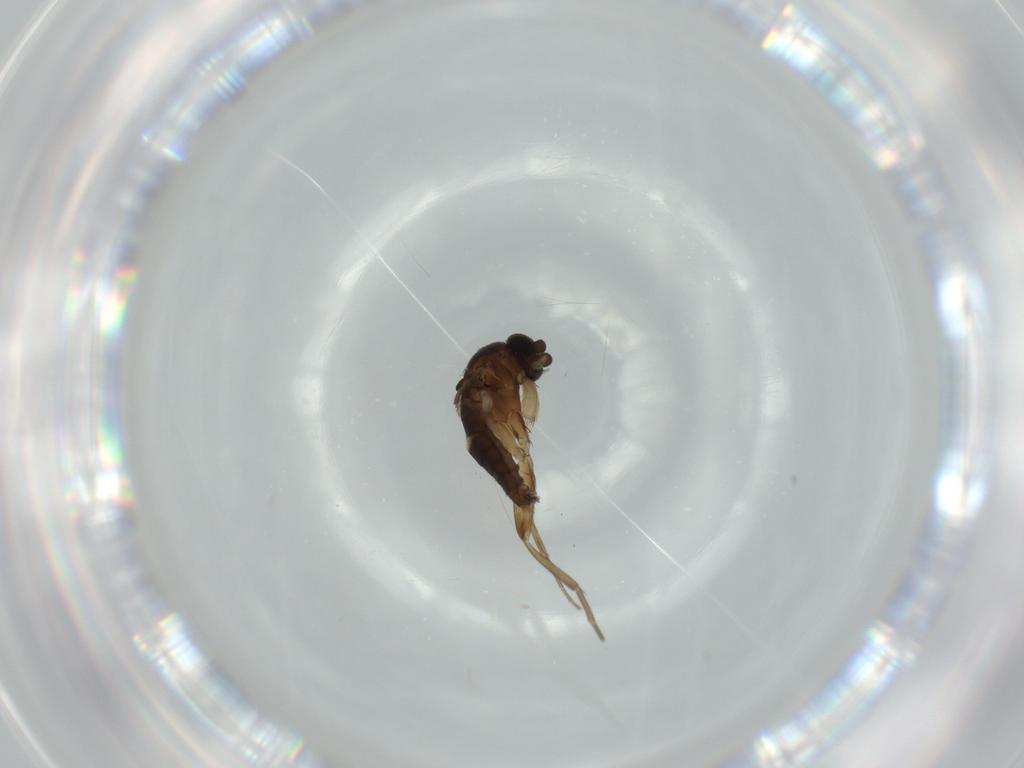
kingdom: Animalia
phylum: Arthropoda
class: Insecta
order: Diptera
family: Phoridae
